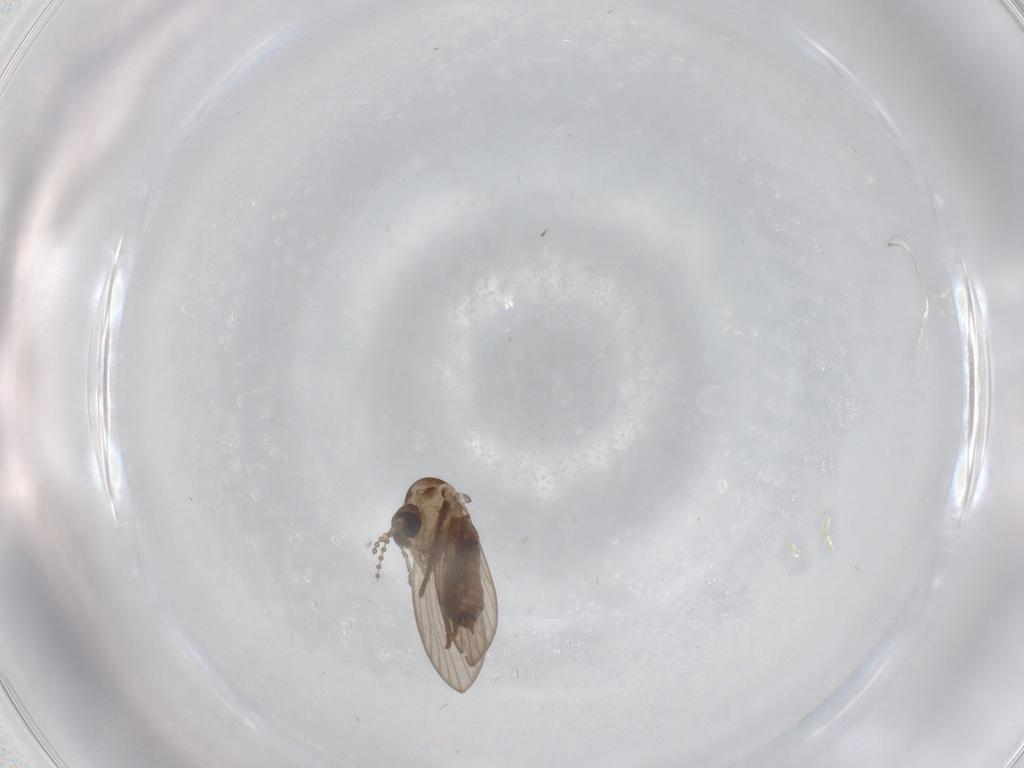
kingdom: Animalia
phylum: Arthropoda
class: Insecta
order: Diptera
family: Psychodidae
